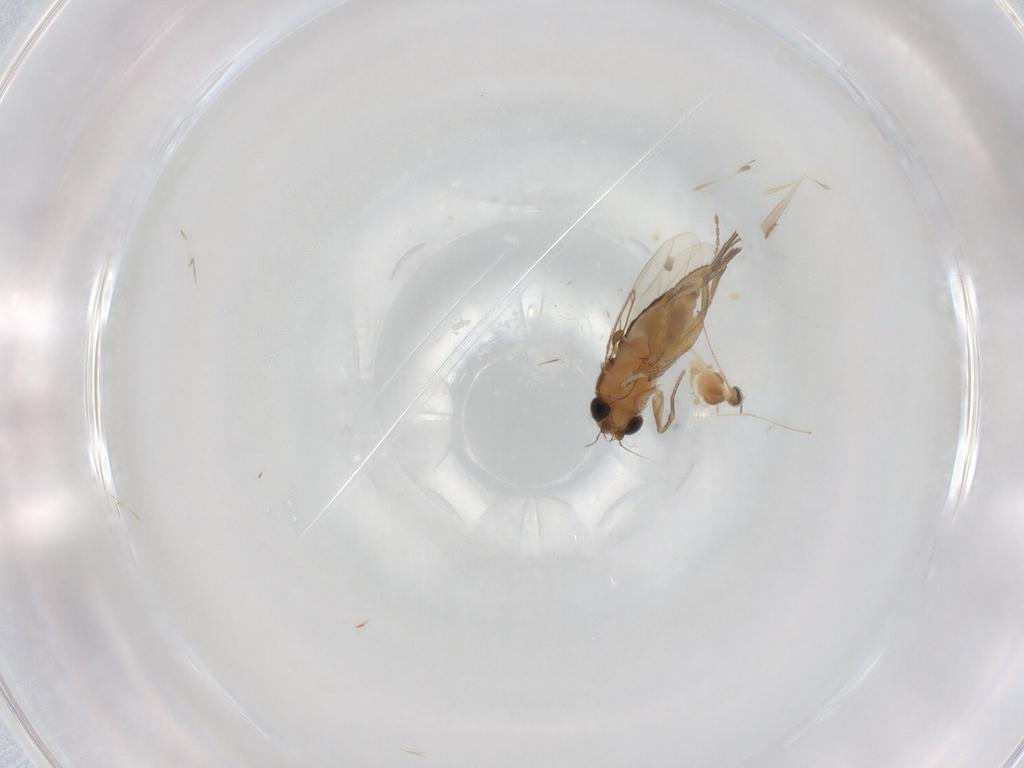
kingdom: Animalia
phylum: Arthropoda
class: Insecta
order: Diptera
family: Cecidomyiidae
